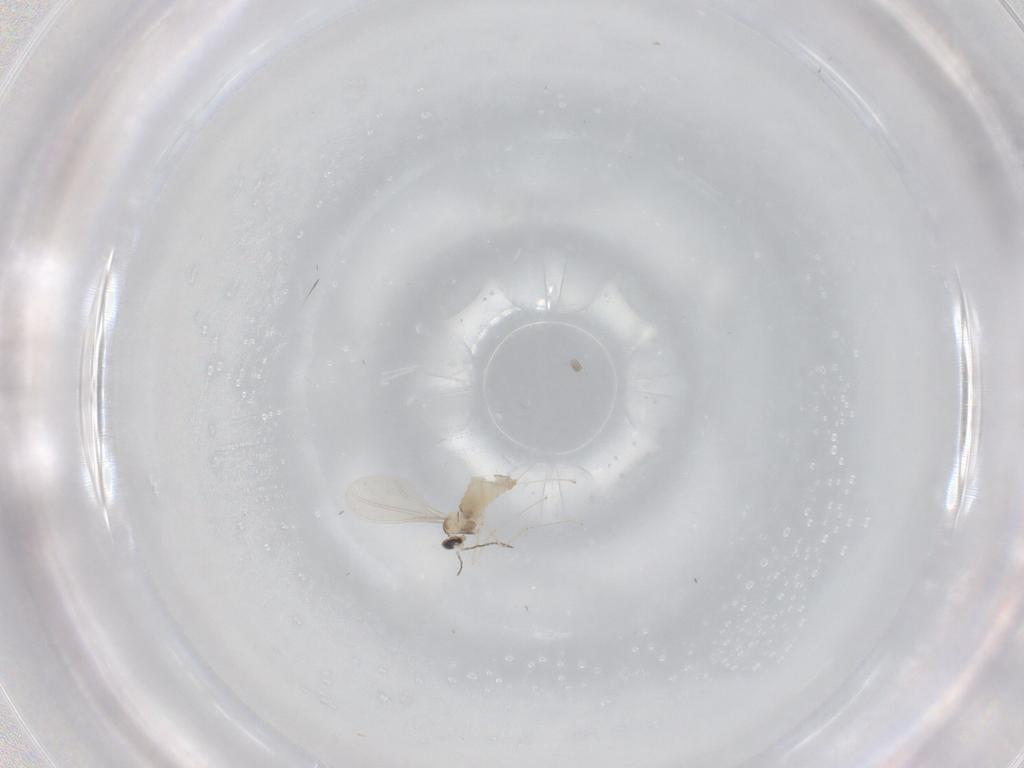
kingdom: Animalia
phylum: Arthropoda
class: Insecta
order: Diptera
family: Cecidomyiidae
